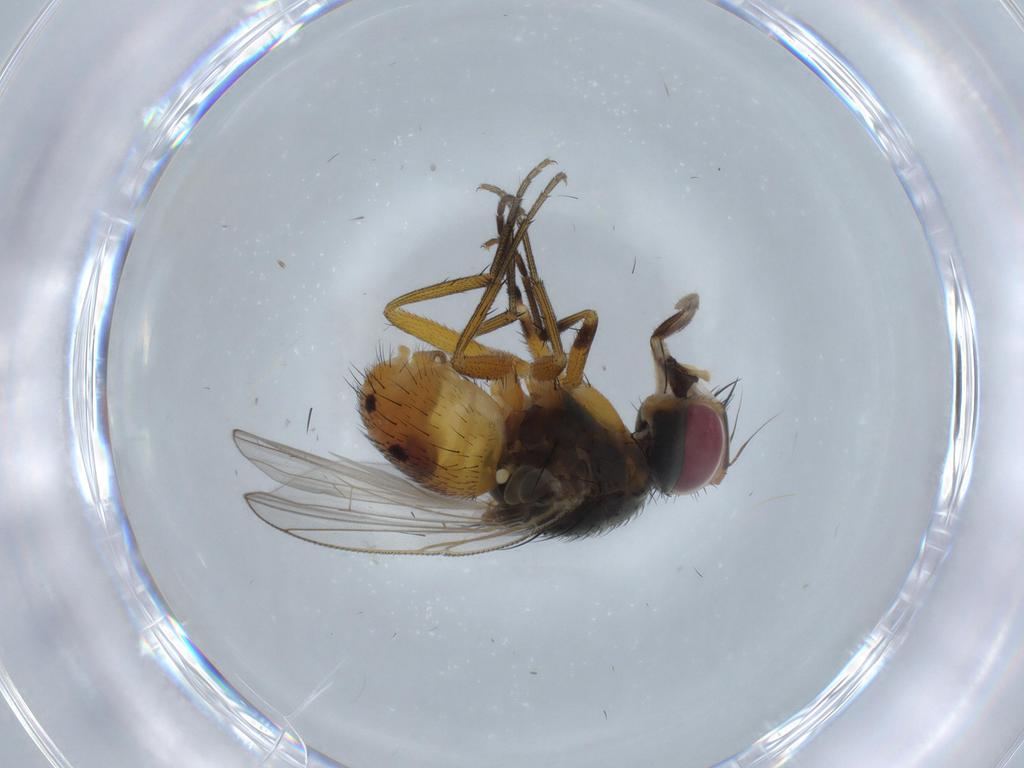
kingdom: Animalia
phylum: Arthropoda
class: Insecta
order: Diptera
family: Muscidae
